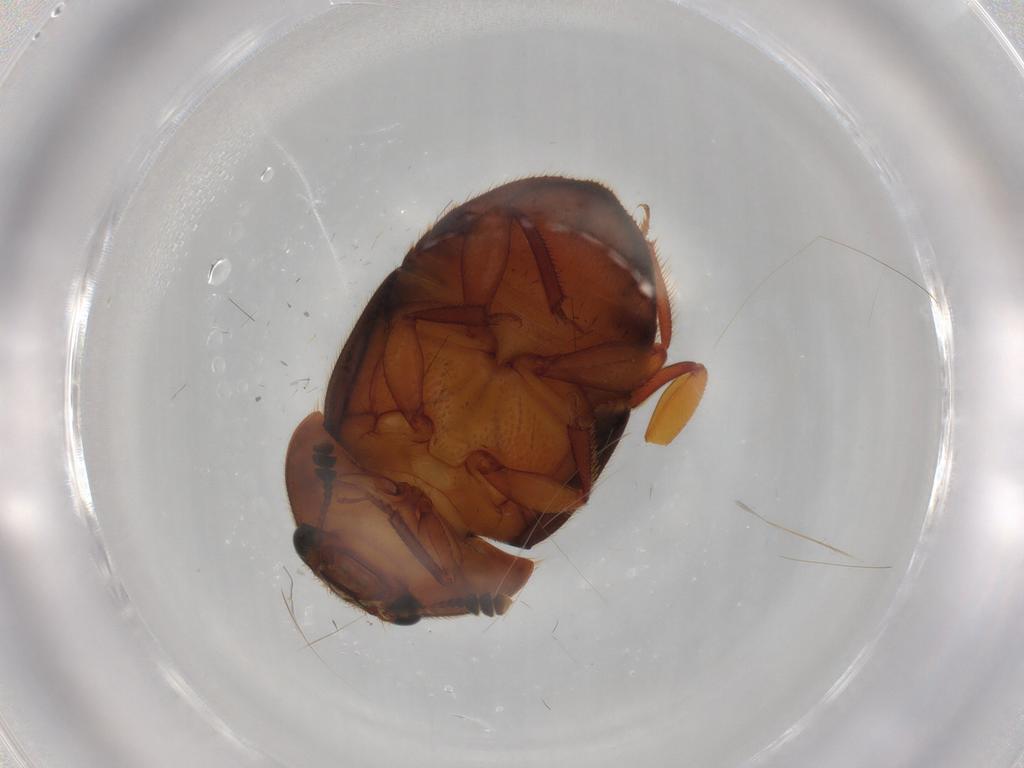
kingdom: Animalia
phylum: Arthropoda
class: Insecta
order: Coleoptera
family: Nitidulidae
